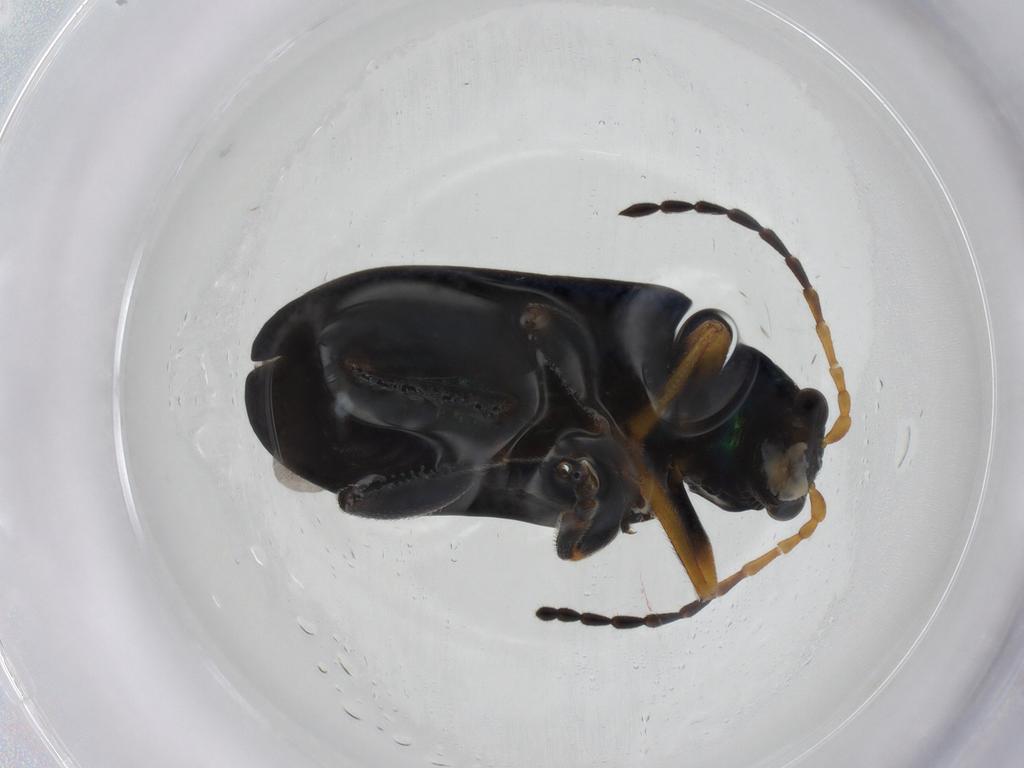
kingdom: Animalia
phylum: Arthropoda
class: Insecta
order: Coleoptera
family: Chrysomelidae
